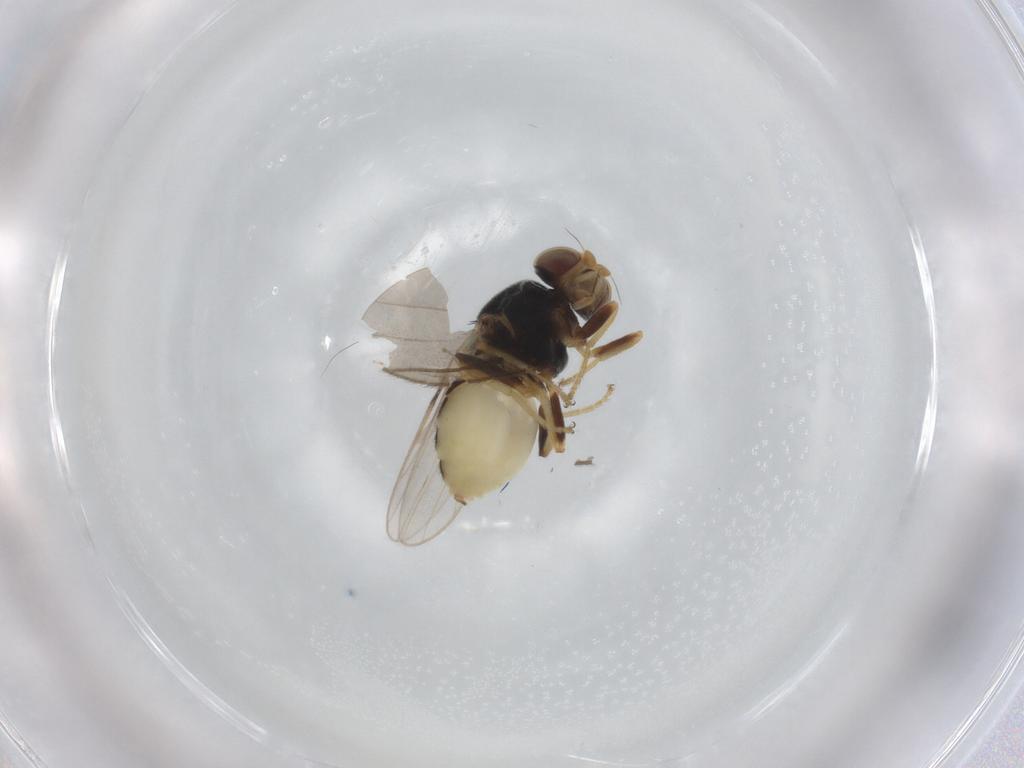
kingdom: Animalia
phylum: Arthropoda
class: Insecta
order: Diptera
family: Chloropidae
